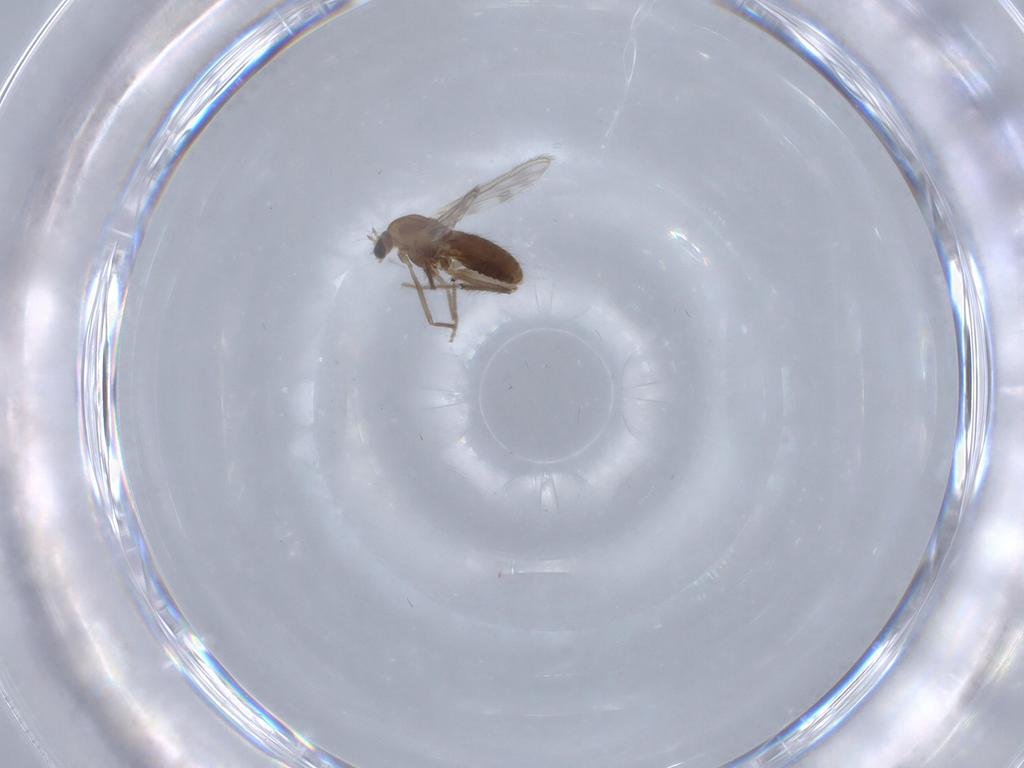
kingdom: Animalia
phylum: Arthropoda
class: Insecta
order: Diptera
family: Chironomidae
